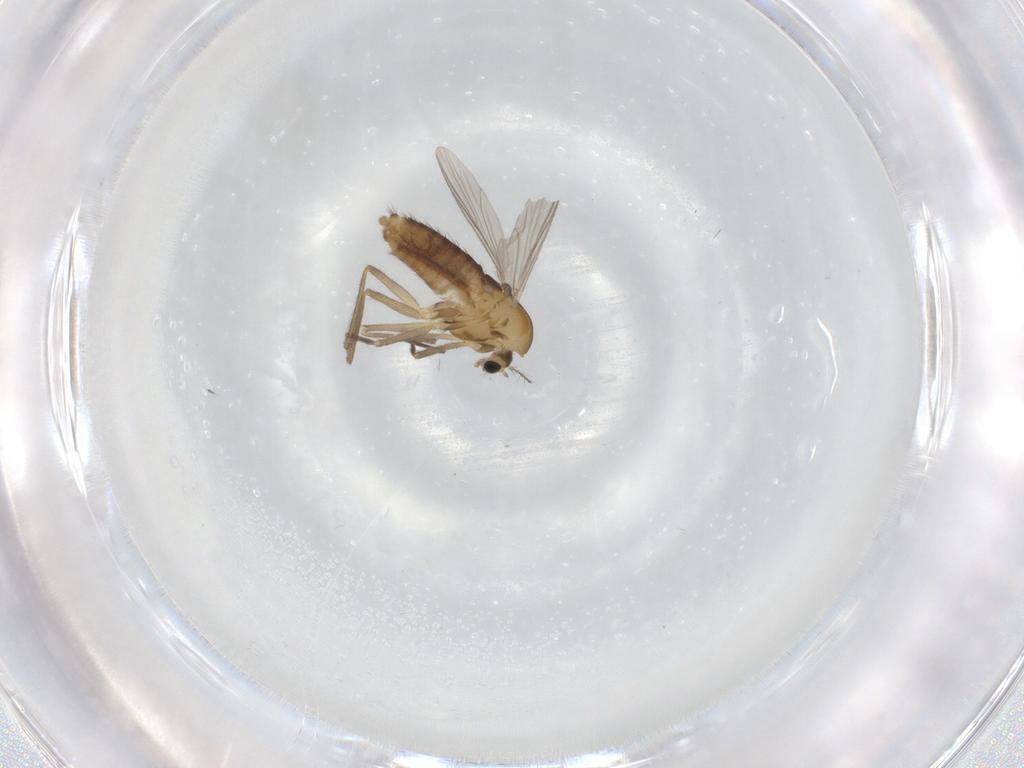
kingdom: Animalia
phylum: Arthropoda
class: Insecta
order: Diptera
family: Chironomidae
